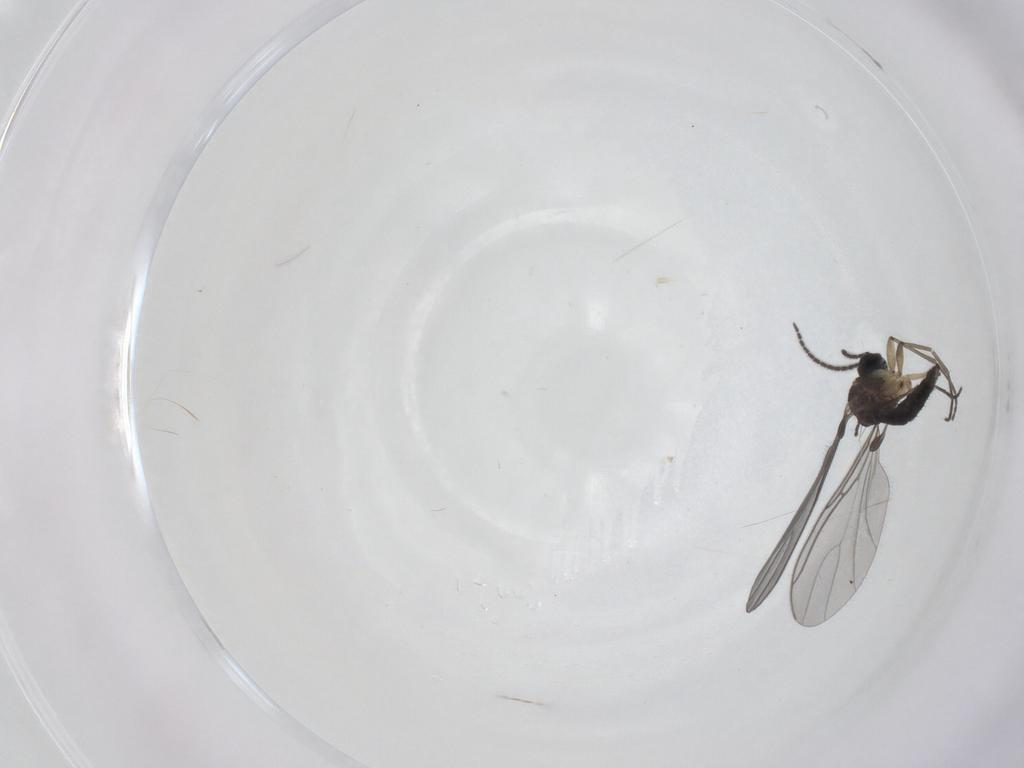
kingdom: Animalia
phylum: Arthropoda
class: Insecta
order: Diptera
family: Sciaridae
